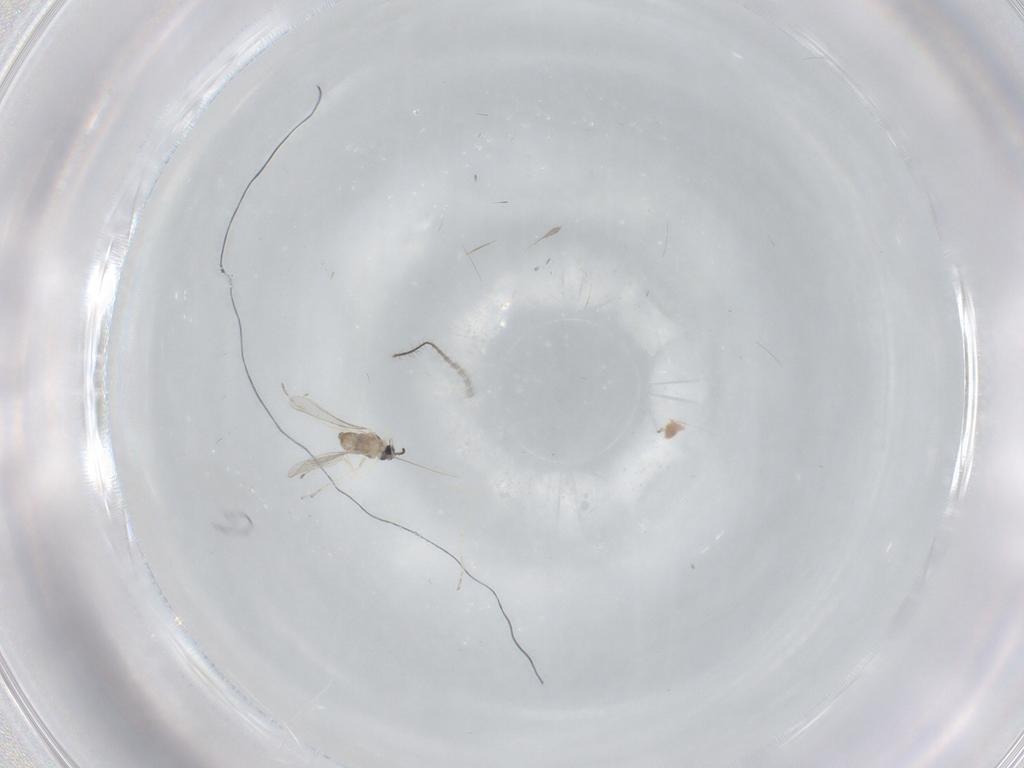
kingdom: Animalia
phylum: Arthropoda
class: Insecta
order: Diptera
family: Cecidomyiidae
